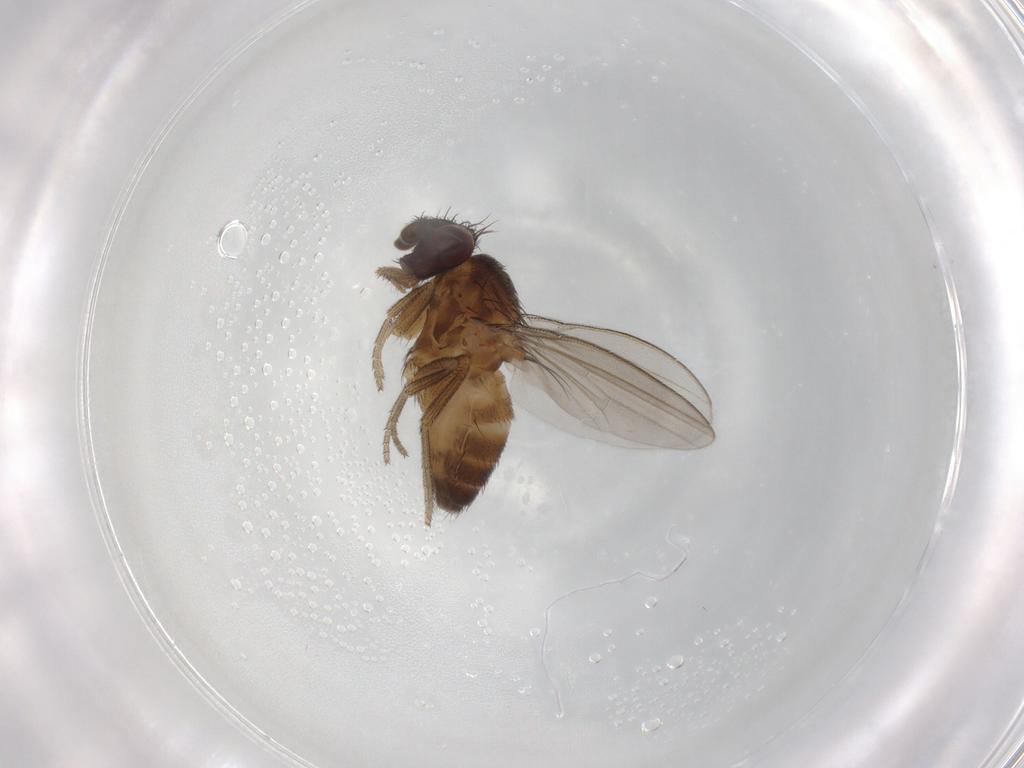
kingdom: Animalia
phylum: Arthropoda
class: Insecta
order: Diptera
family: Milichiidae
